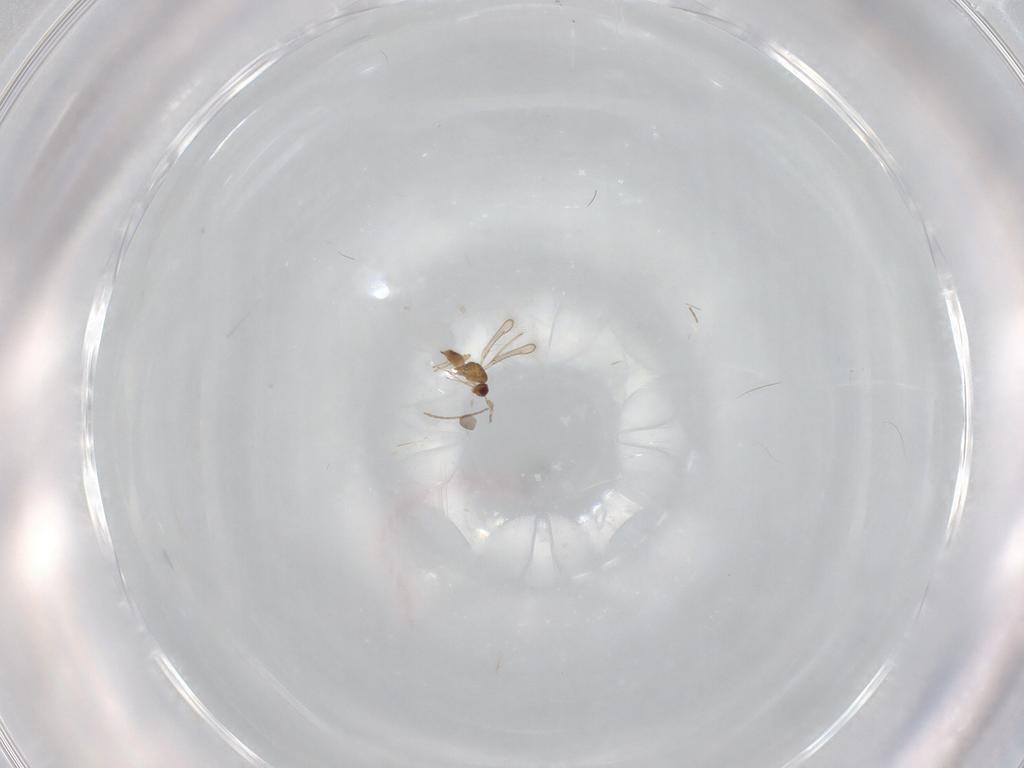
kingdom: Animalia
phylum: Arthropoda
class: Insecta
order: Hymenoptera
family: Mymaridae
